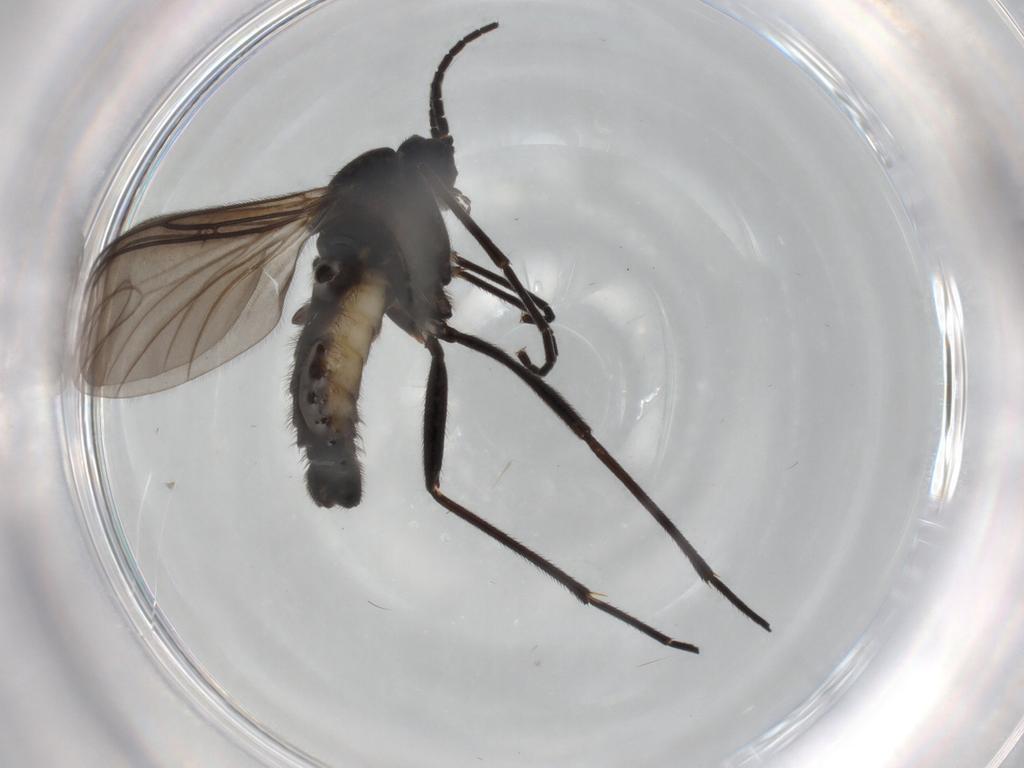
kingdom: Animalia
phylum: Arthropoda
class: Insecta
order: Diptera
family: Sciaridae
